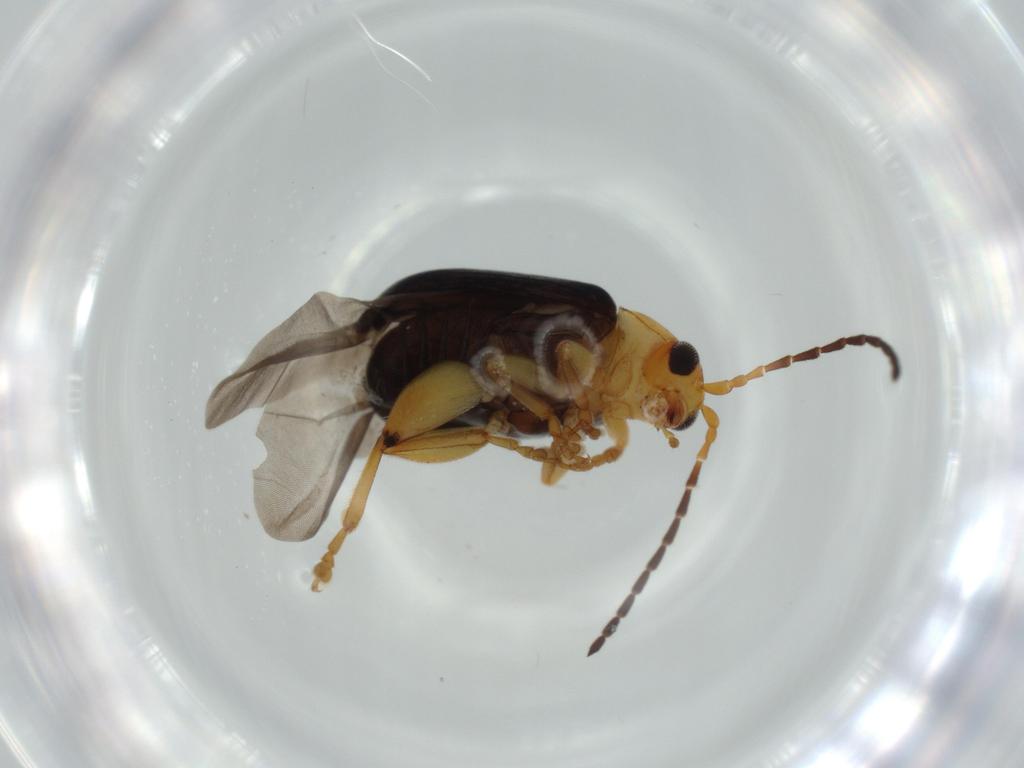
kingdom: Animalia
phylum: Arthropoda
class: Insecta
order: Coleoptera
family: Chrysomelidae
